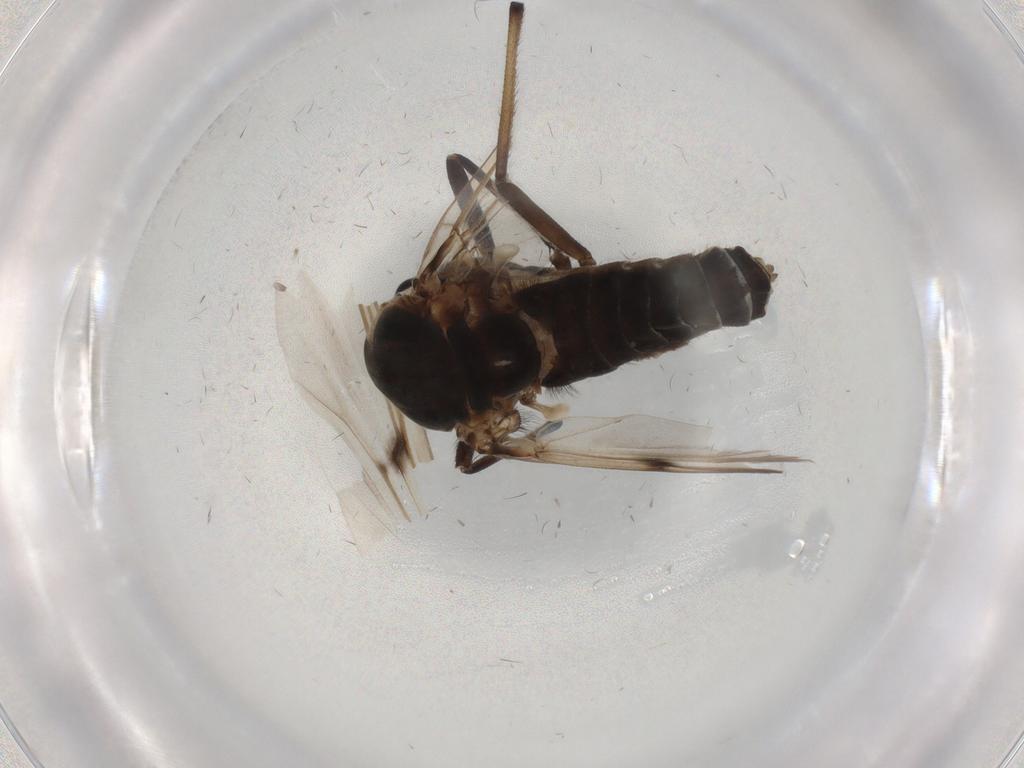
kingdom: Animalia
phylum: Arthropoda
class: Insecta
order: Diptera
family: Chironomidae
